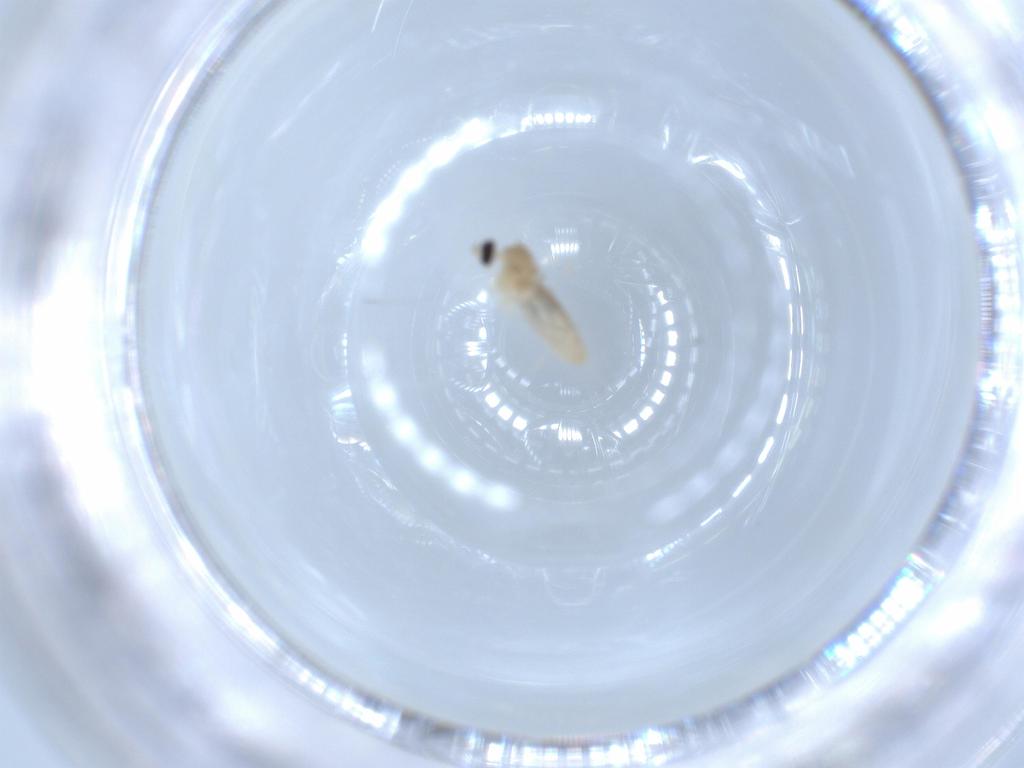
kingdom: Animalia
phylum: Arthropoda
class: Insecta
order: Diptera
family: Cecidomyiidae
